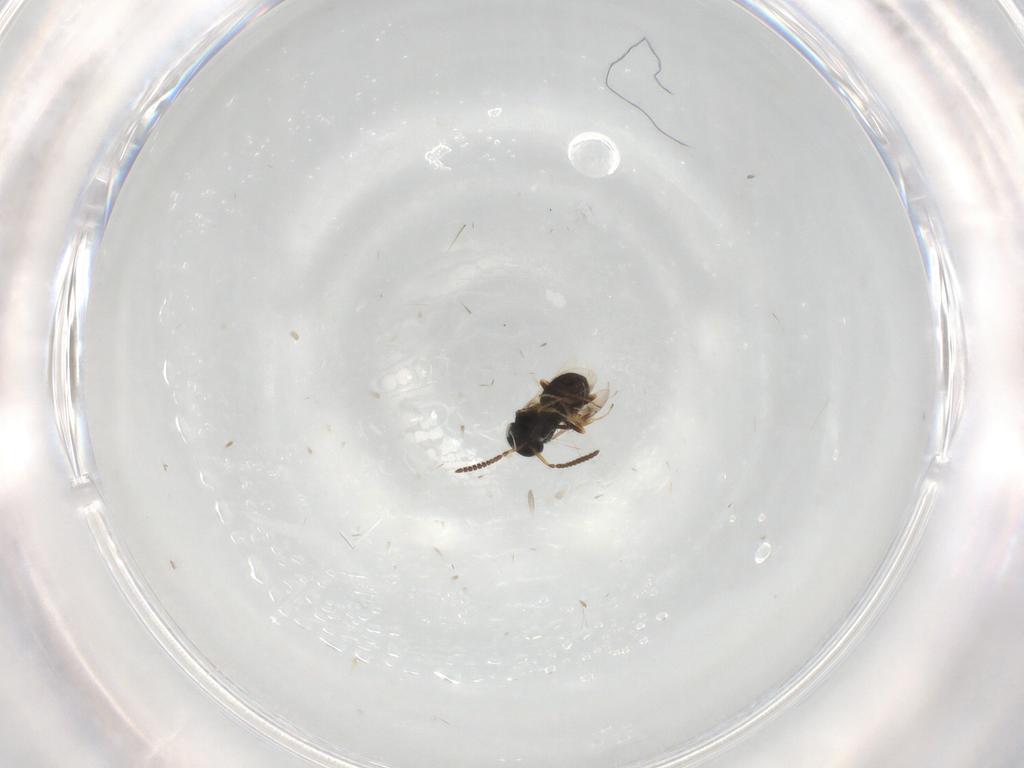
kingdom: Animalia
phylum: Arthropoda
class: Insecta
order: Hymenoptera
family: Scelionidae
